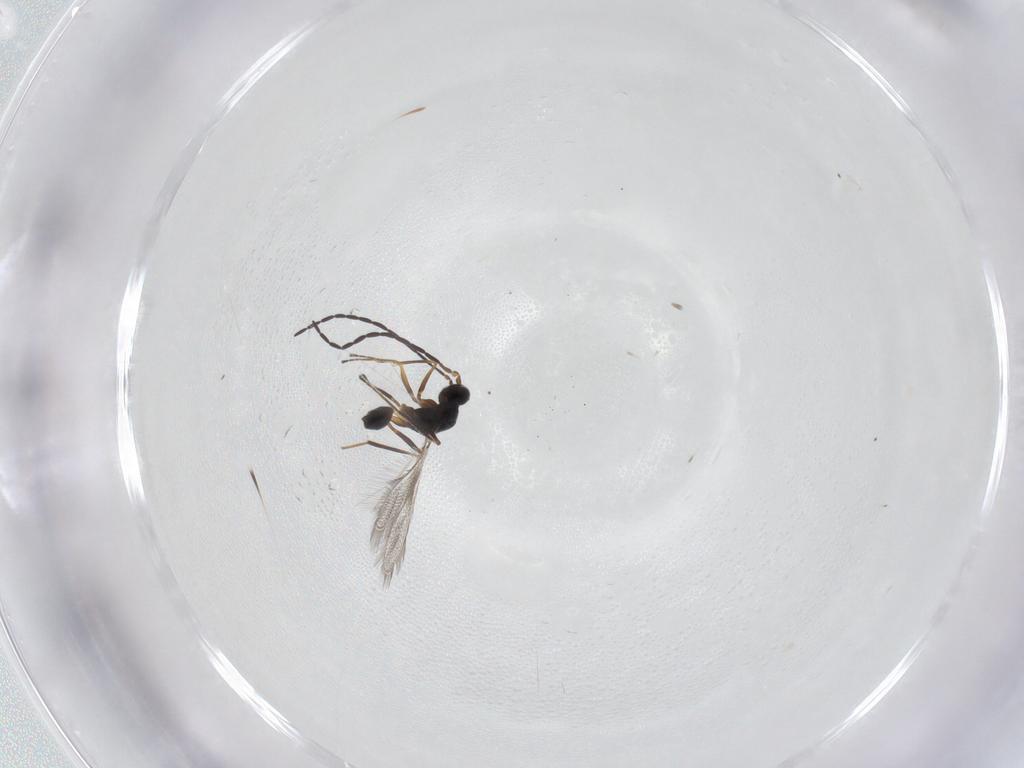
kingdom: Animalia
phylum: Arthropoda
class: Insecta
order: Hymenoptera
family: Mymaridae
